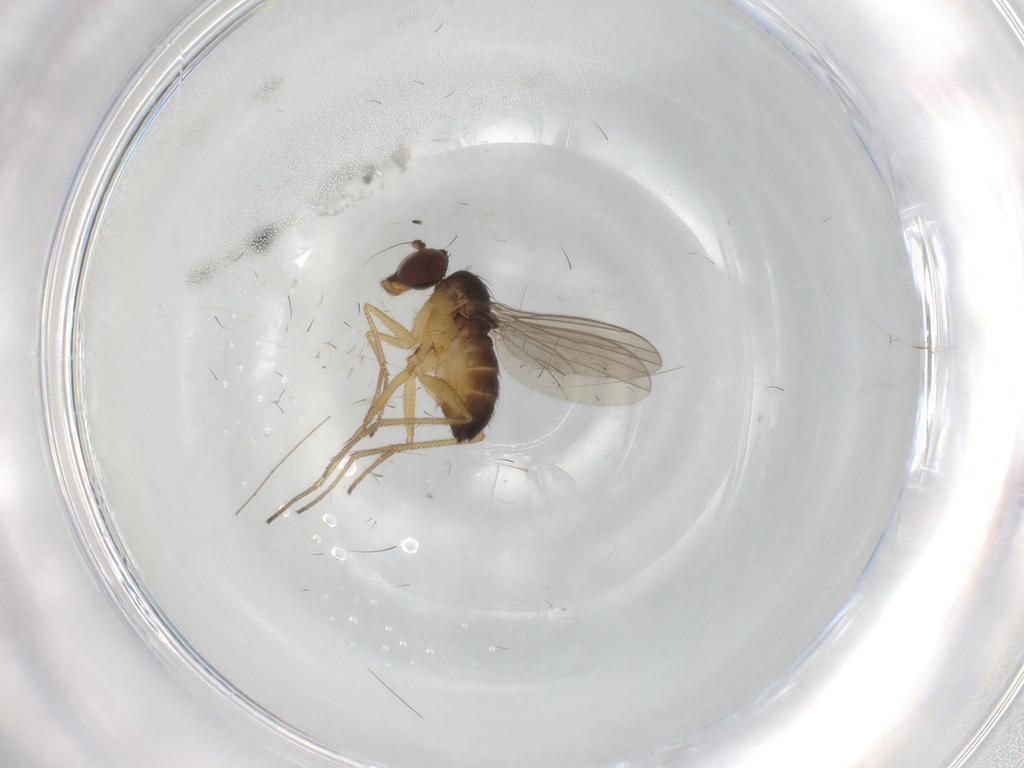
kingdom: Animalia
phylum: Arthropoda
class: Insecta
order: Diptera
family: Dolichopodidae
